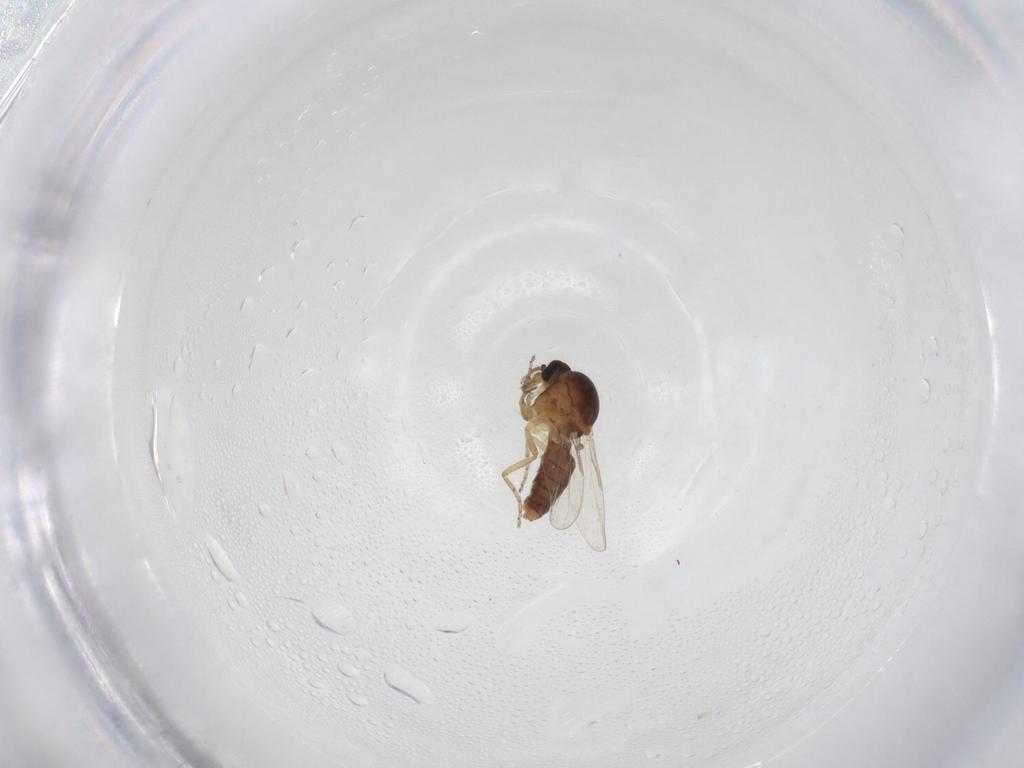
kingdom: Animalia
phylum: Arthropoda
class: Insecta
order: Diptera
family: Ceratopogonidae
